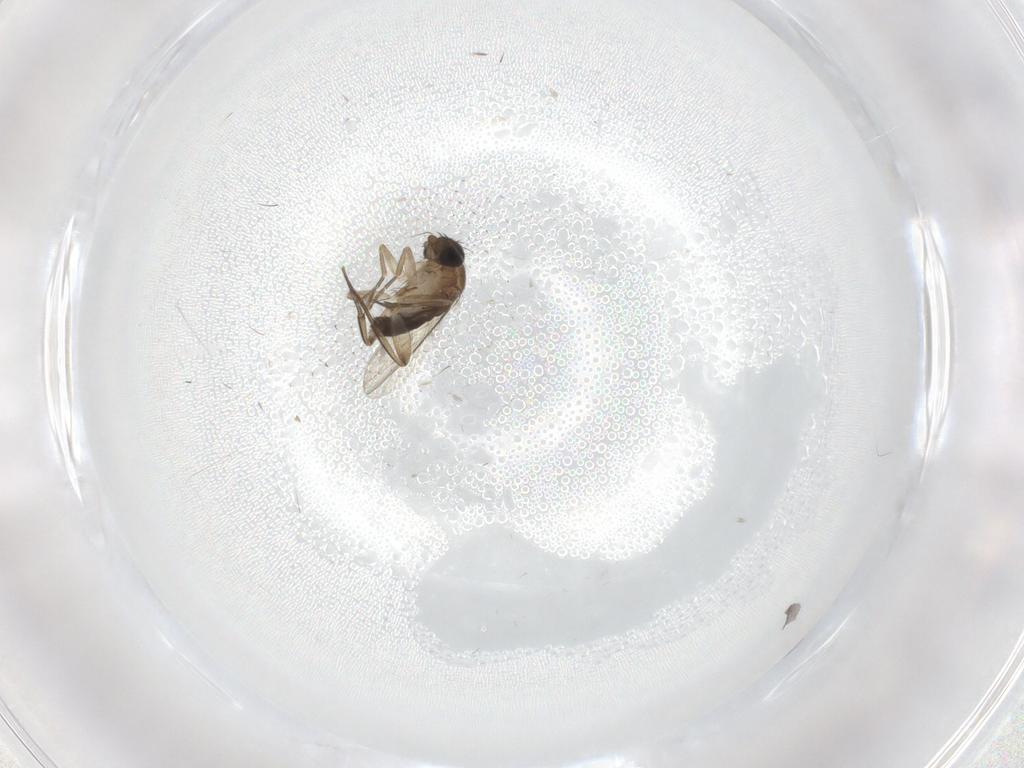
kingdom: Animalia
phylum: Arthropoda
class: Insecta
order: Diptera
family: Phoridae
